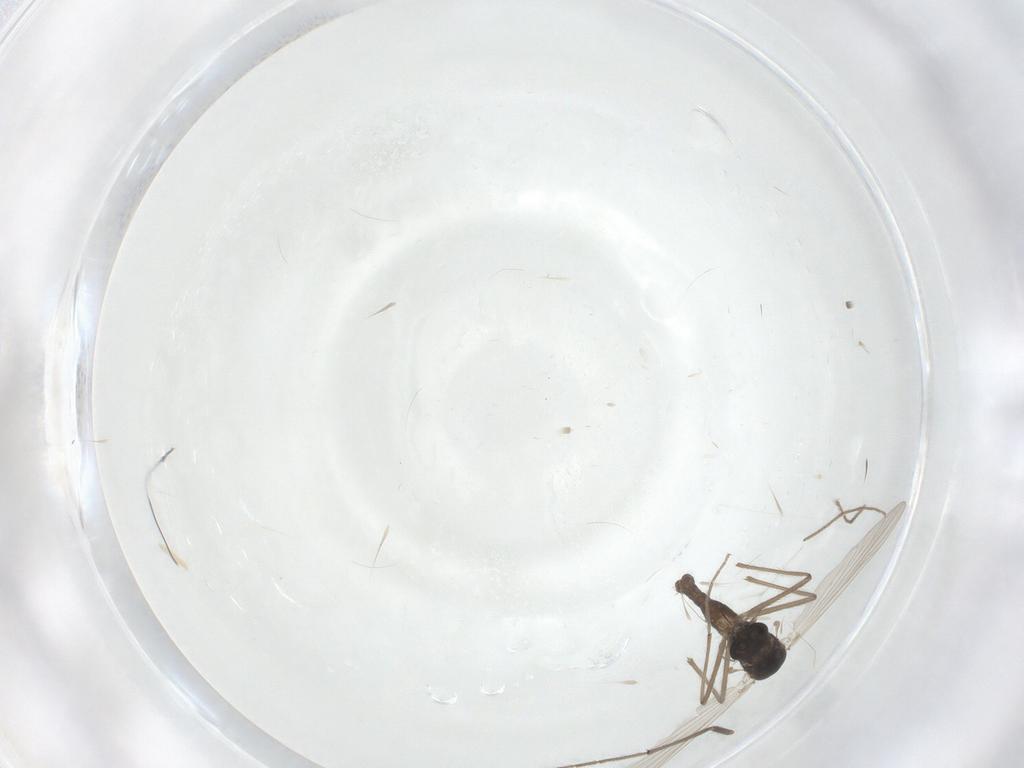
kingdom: Animalia
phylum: Arthropoda
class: Insecta
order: Diptera
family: Chironomidae
